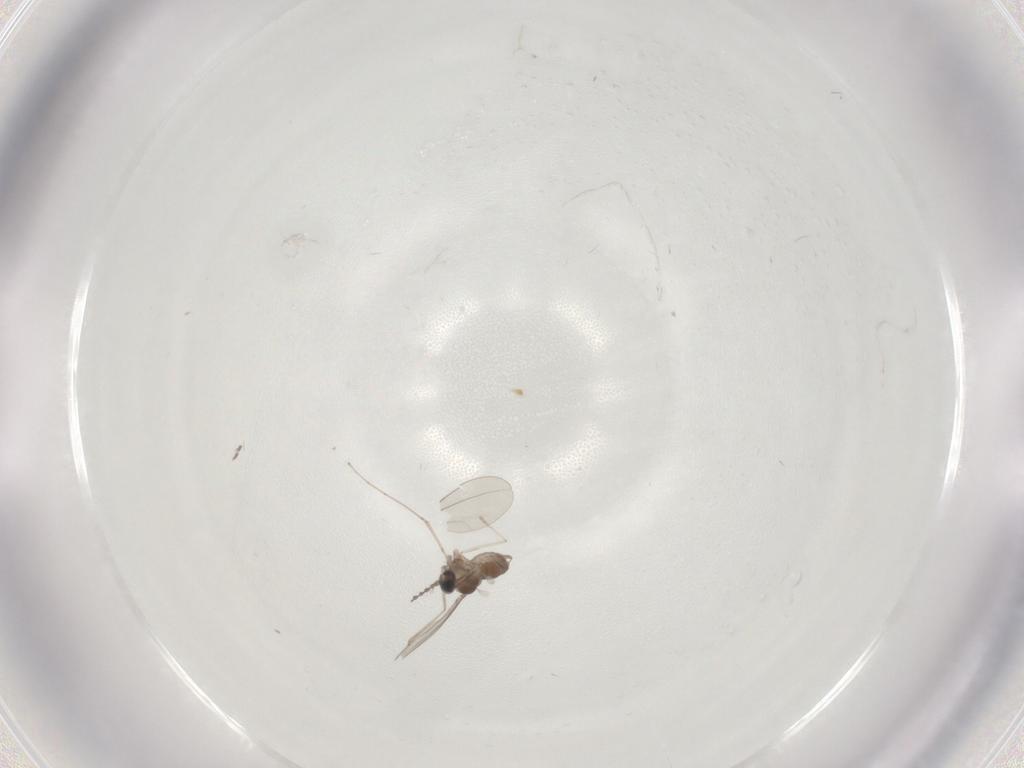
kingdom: Animalia
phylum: Arthropoda
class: Insecta
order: Diptera
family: Cecidomyiidae
